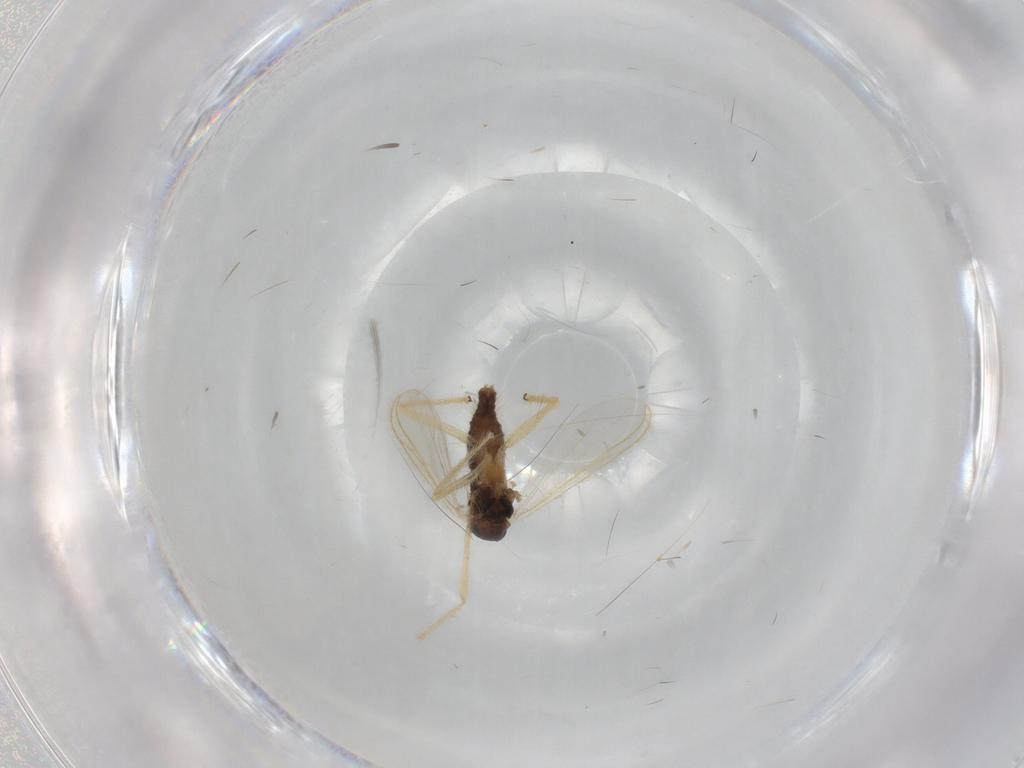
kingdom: Animalia
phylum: Arthropoda
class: Insecta
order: Diptera
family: Chironomidae
